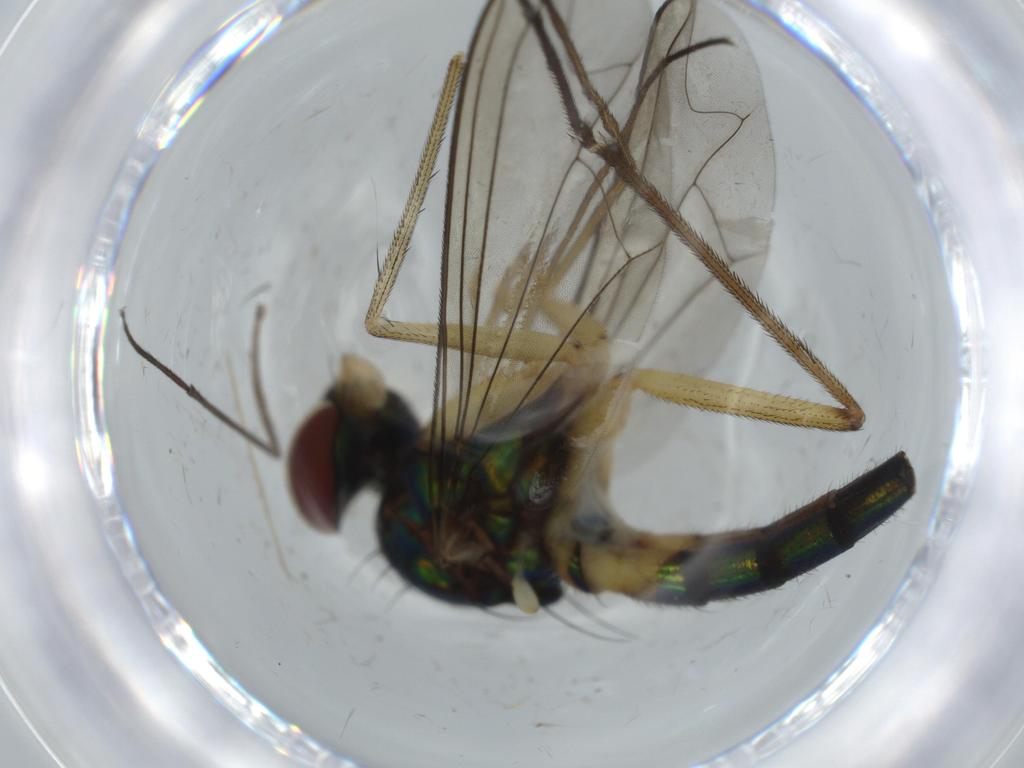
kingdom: Animalia
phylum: Arthropoda
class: Insecta
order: Diptera
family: Dolichopodidae
